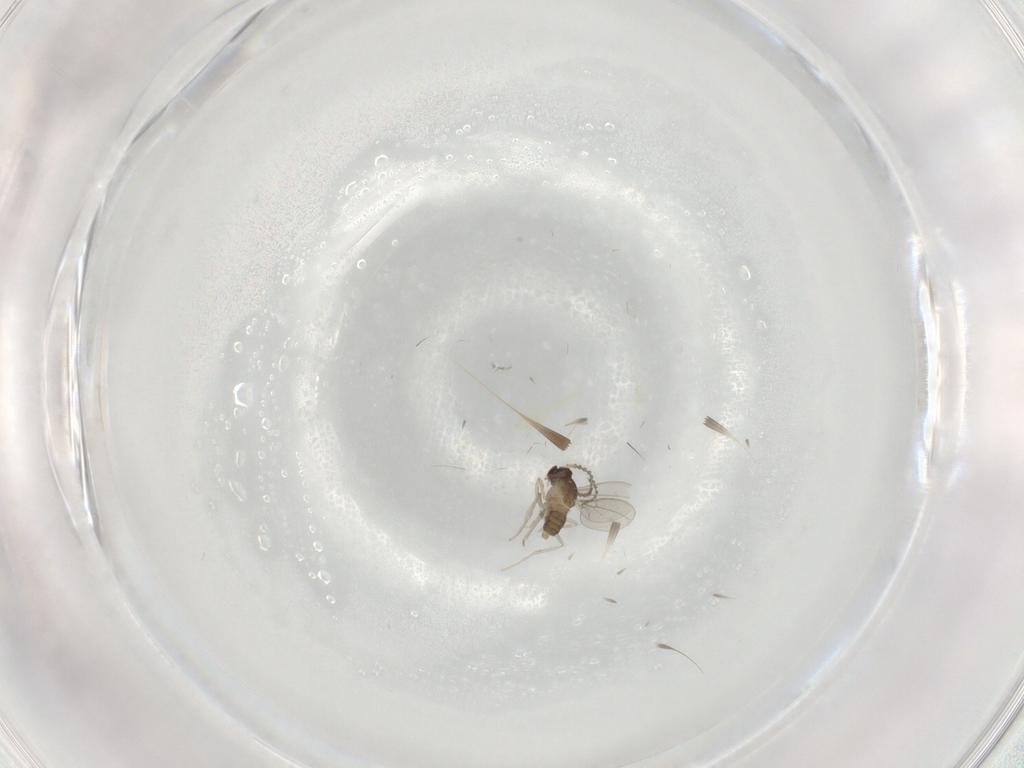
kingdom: Animalia
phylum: Arthropoda
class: Insecta
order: Diptera
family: Cecidomyiidae
